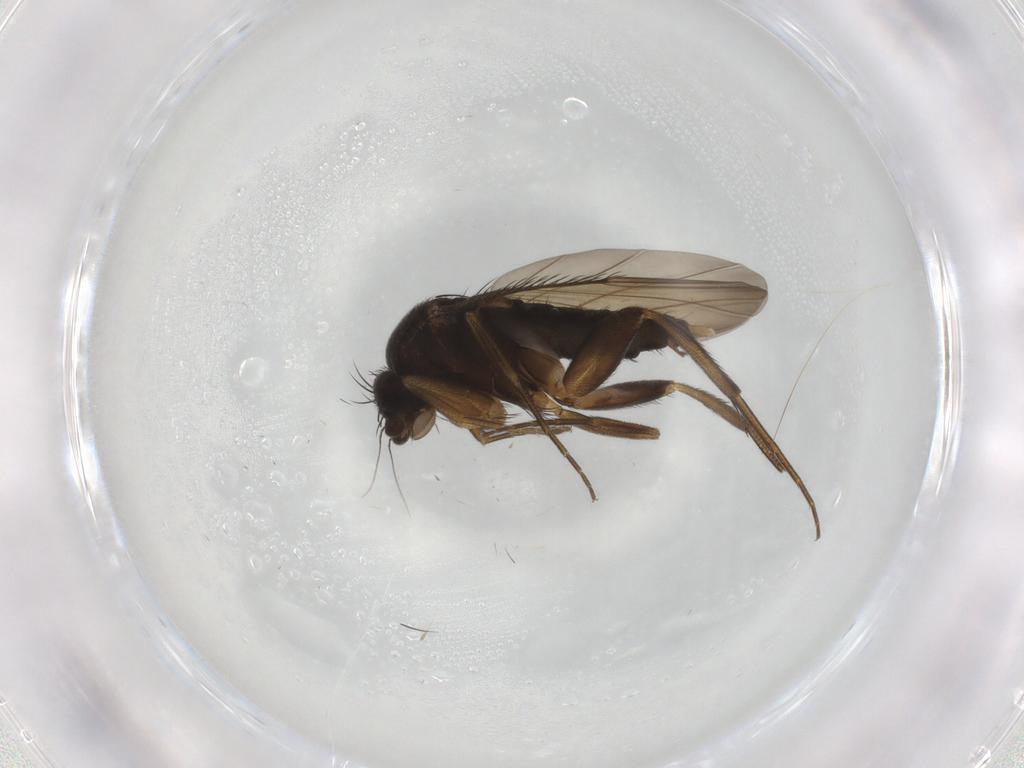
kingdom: Animalia
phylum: Arthropoda
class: Insecta
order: Diptera
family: Phoridae
